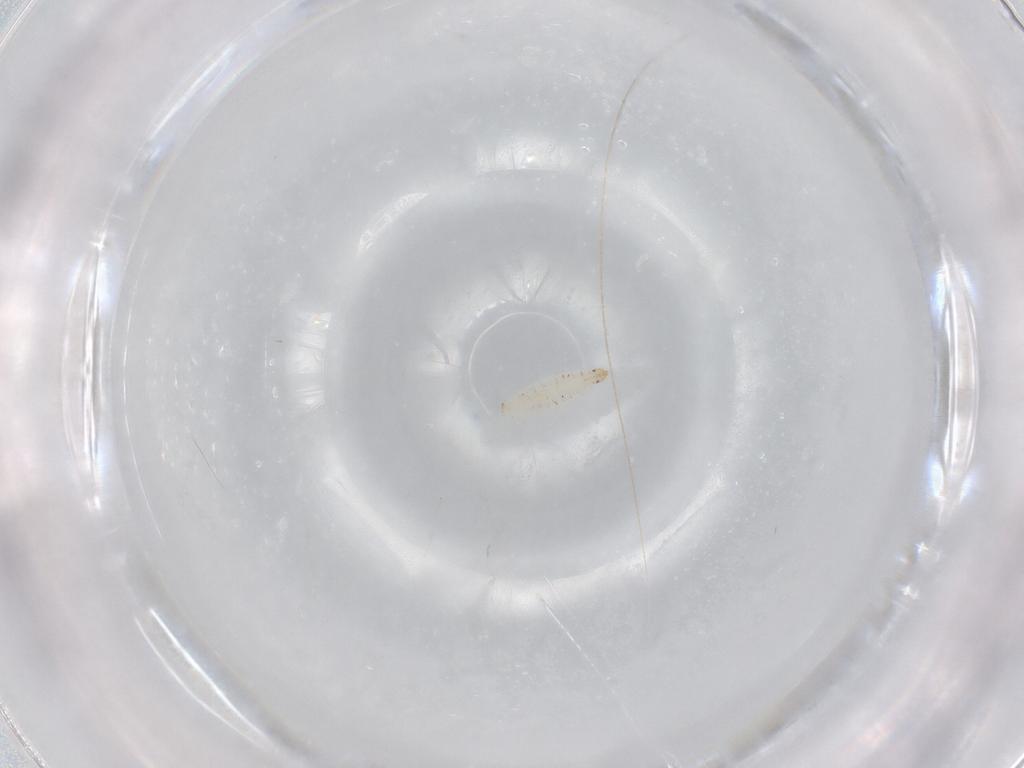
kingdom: Animalia
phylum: Arthropoda
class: Insecta
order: Diptera
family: Stratiomyidae
